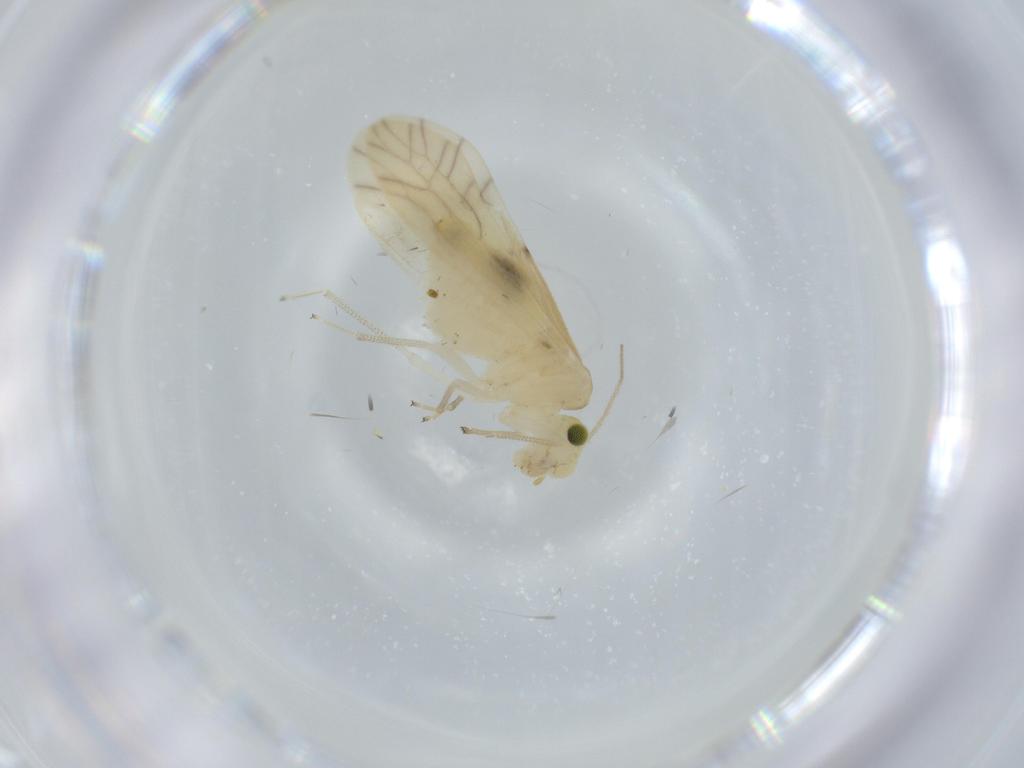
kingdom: Animalia
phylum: Arthropoda
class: Insecta
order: Psocodea
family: Caeciliusidae
